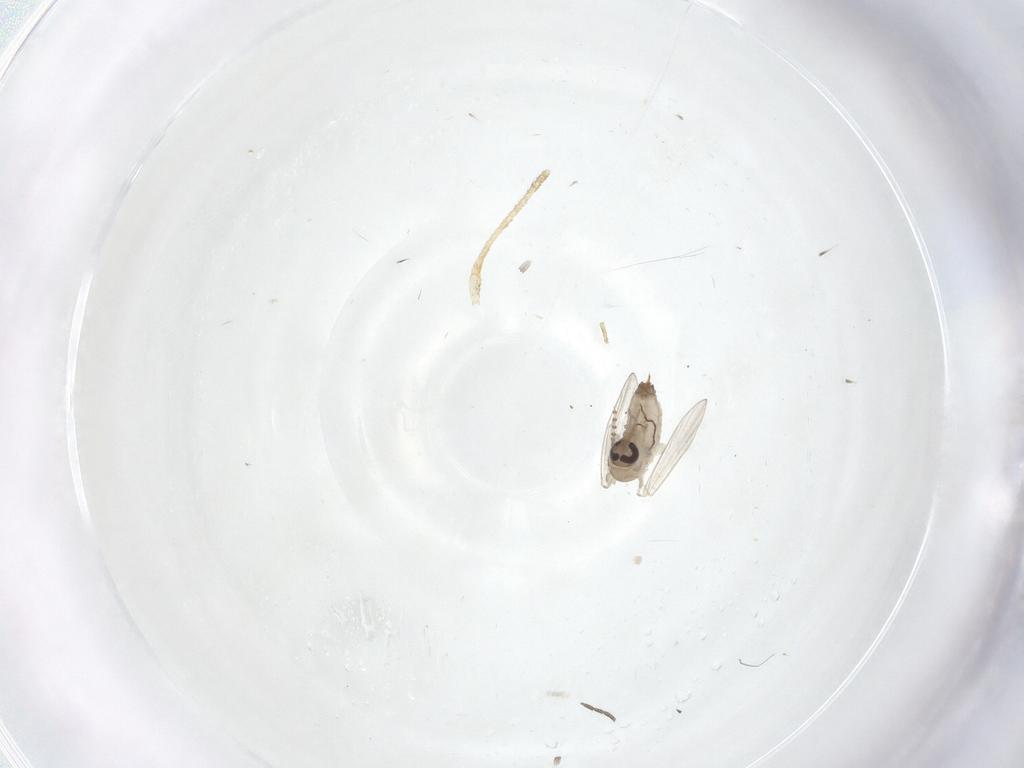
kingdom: Animalia
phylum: Arthropoda
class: Insecta
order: Diptera
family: Psychodidae
